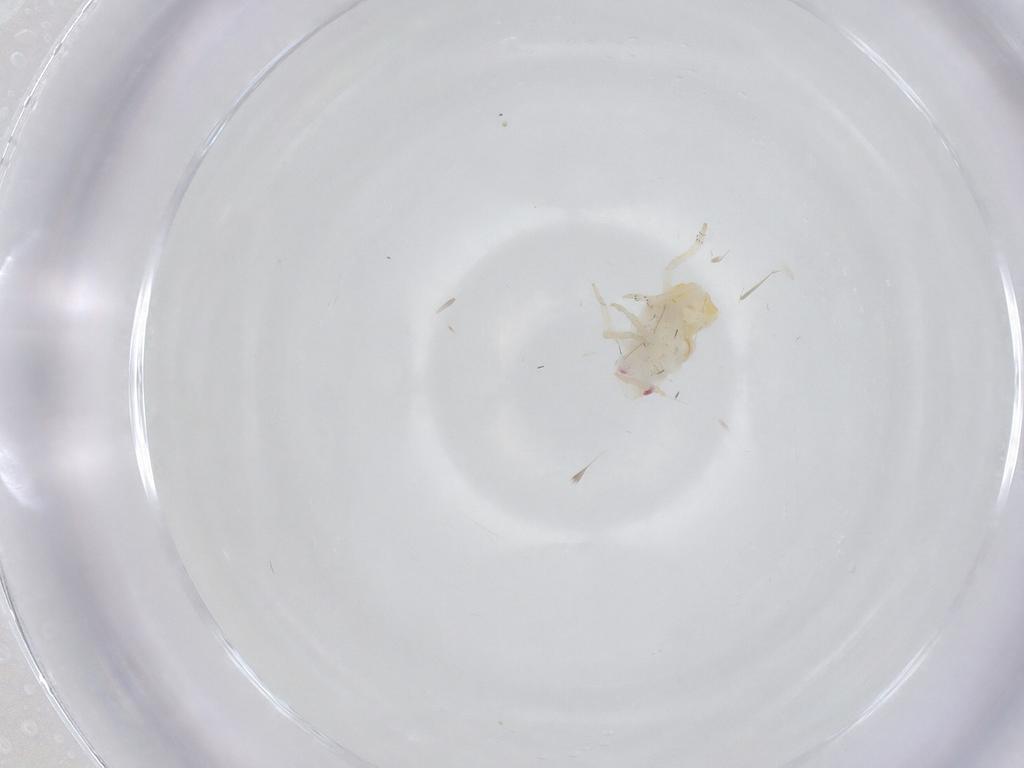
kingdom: Animalia
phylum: Arthropoda
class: Insecta
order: Hemiptera
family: Fulgoroidea_incertae_sedis
